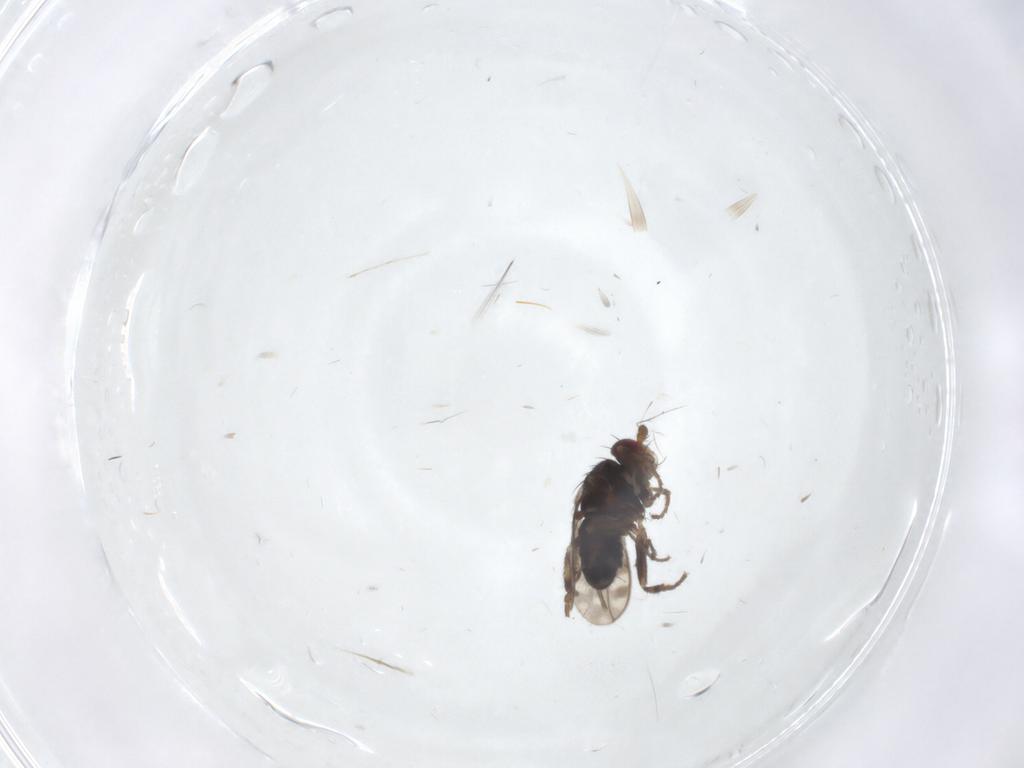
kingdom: Animalia
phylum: Arthropoda
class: Insecta
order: Diptera
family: Sphaeroceridae
